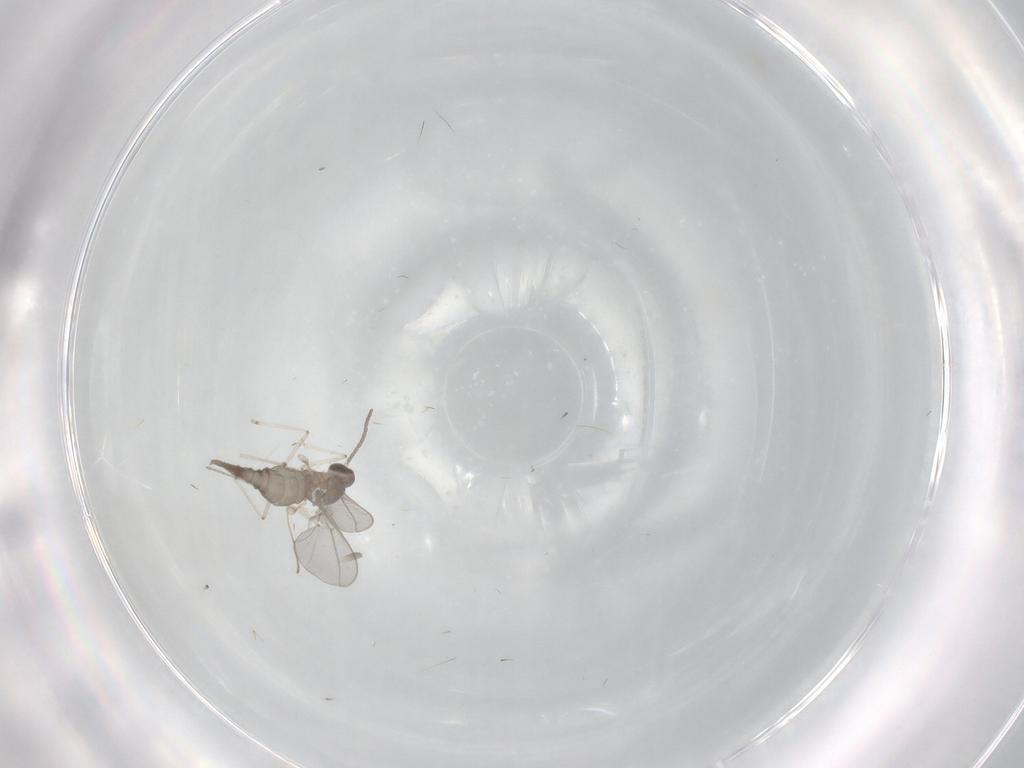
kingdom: Animalia
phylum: Arthropoda
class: Insecta
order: Diptera
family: Cecidomyiidae
